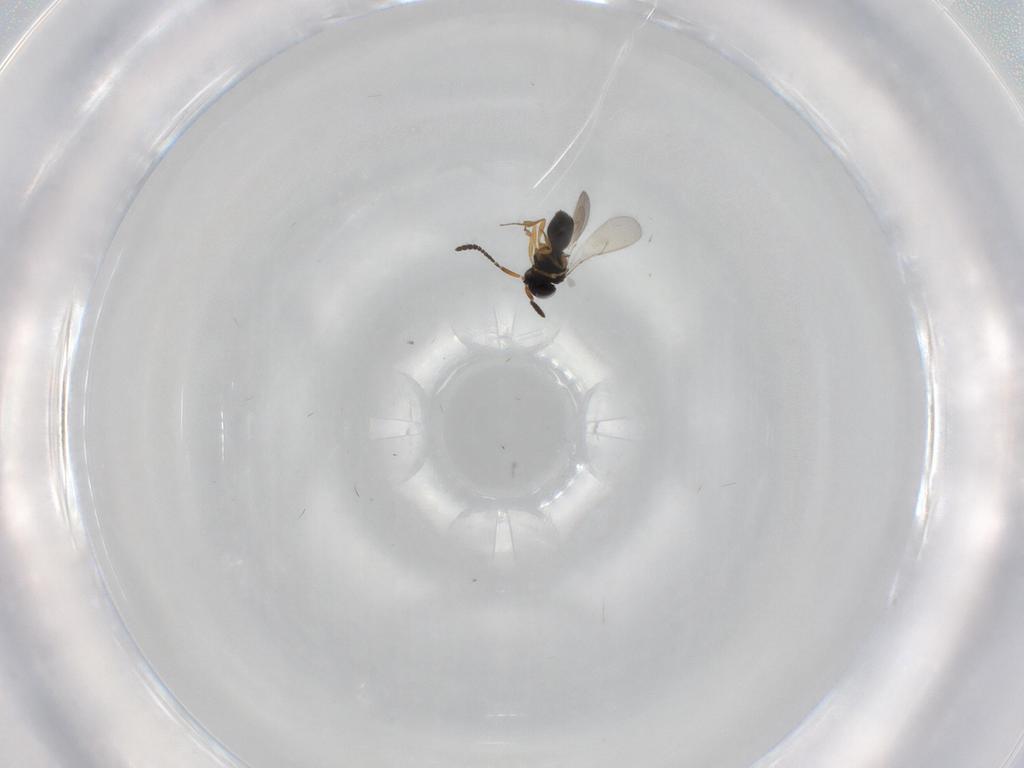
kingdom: Animalia
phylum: Arthropoda
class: Insecta
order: Hymenoptera
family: Scelionidae
